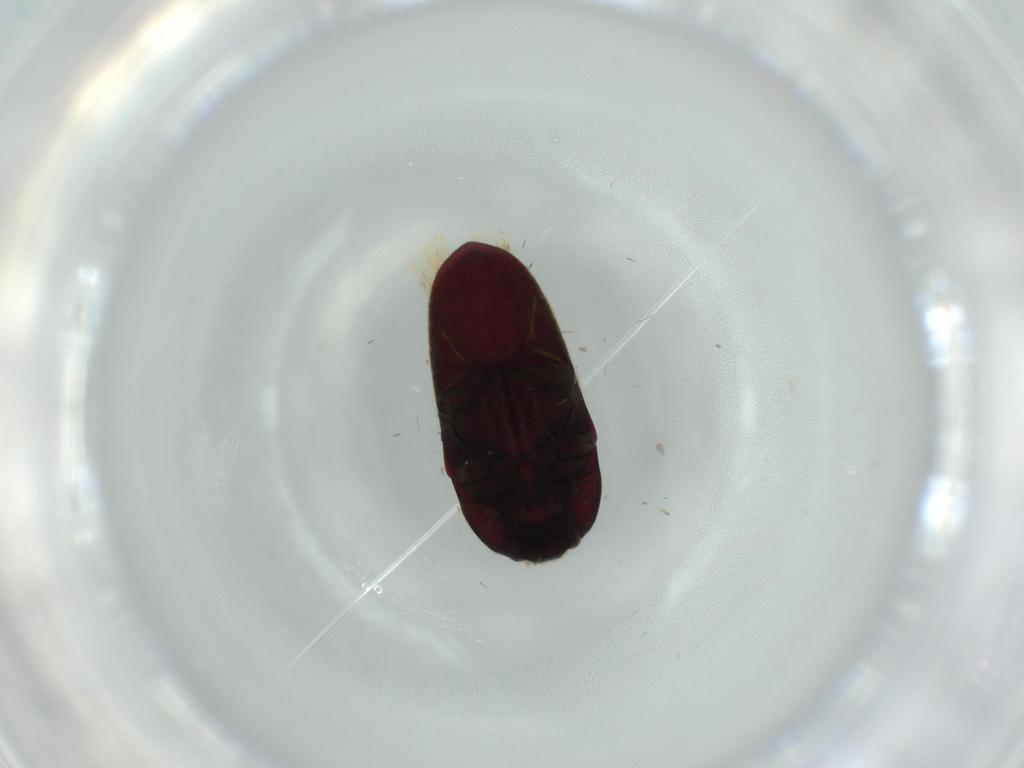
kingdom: Animalia
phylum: Arthropoda
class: Insecta
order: Coleoptera
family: Throscidae
